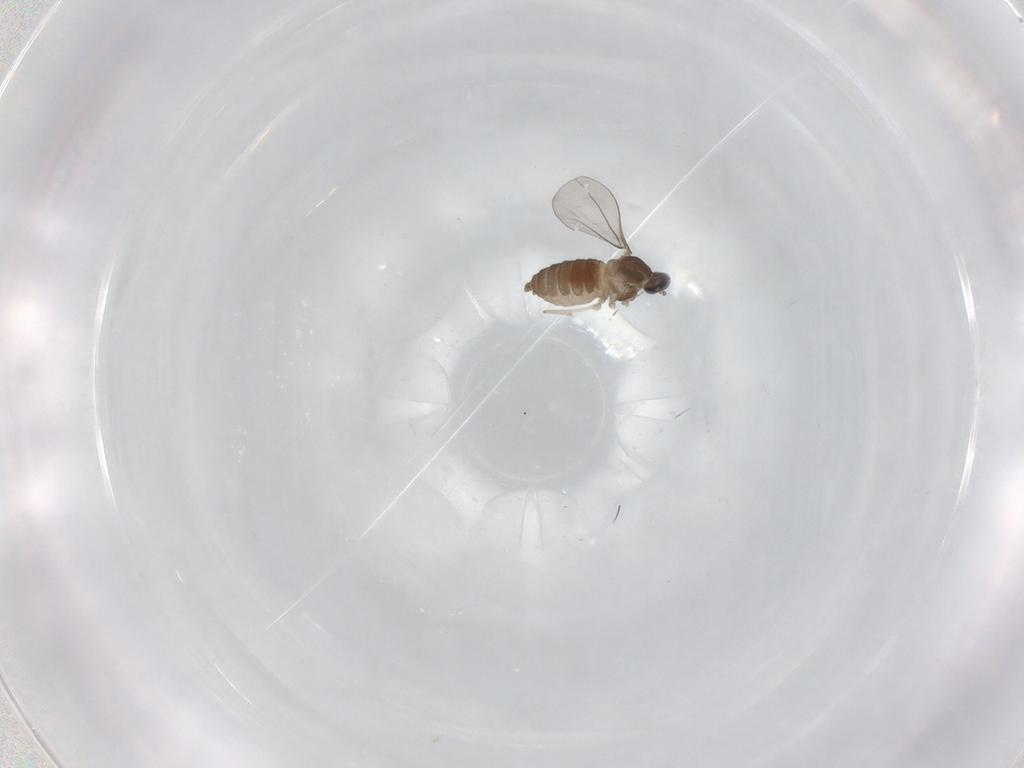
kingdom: Animalia
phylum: Arthropoda
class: Insecta
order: Diptera
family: Cecidomyiidae
